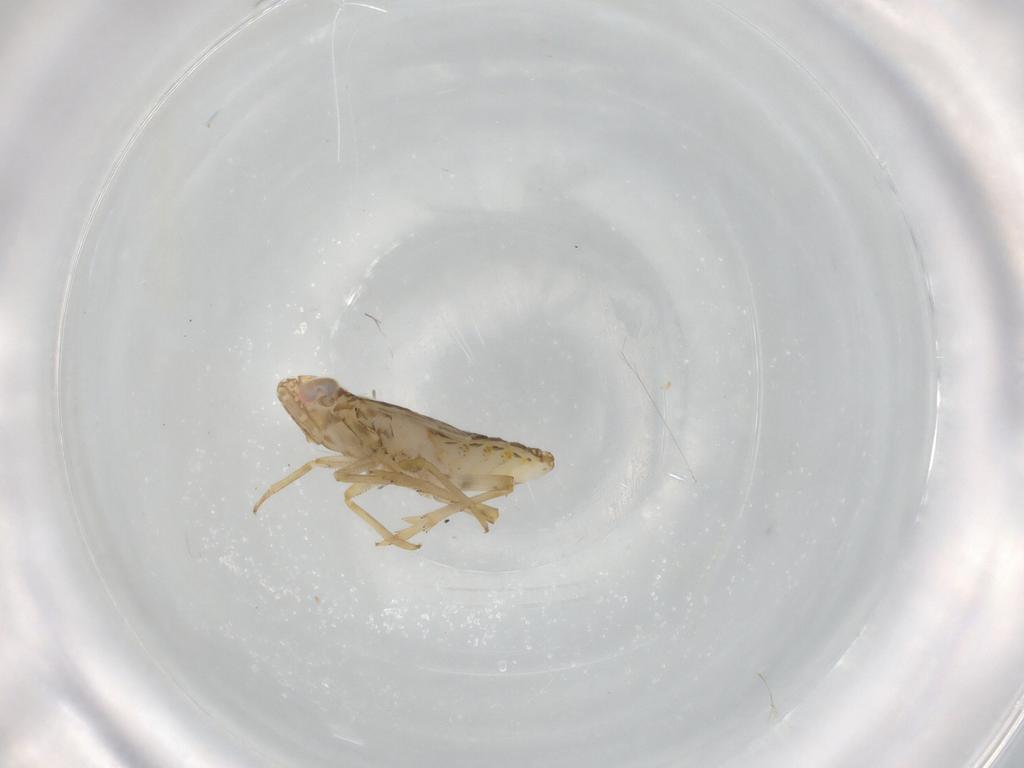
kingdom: Animalia
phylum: Arthropoda
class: Insecta
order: Hemiptera
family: Delphacidae
